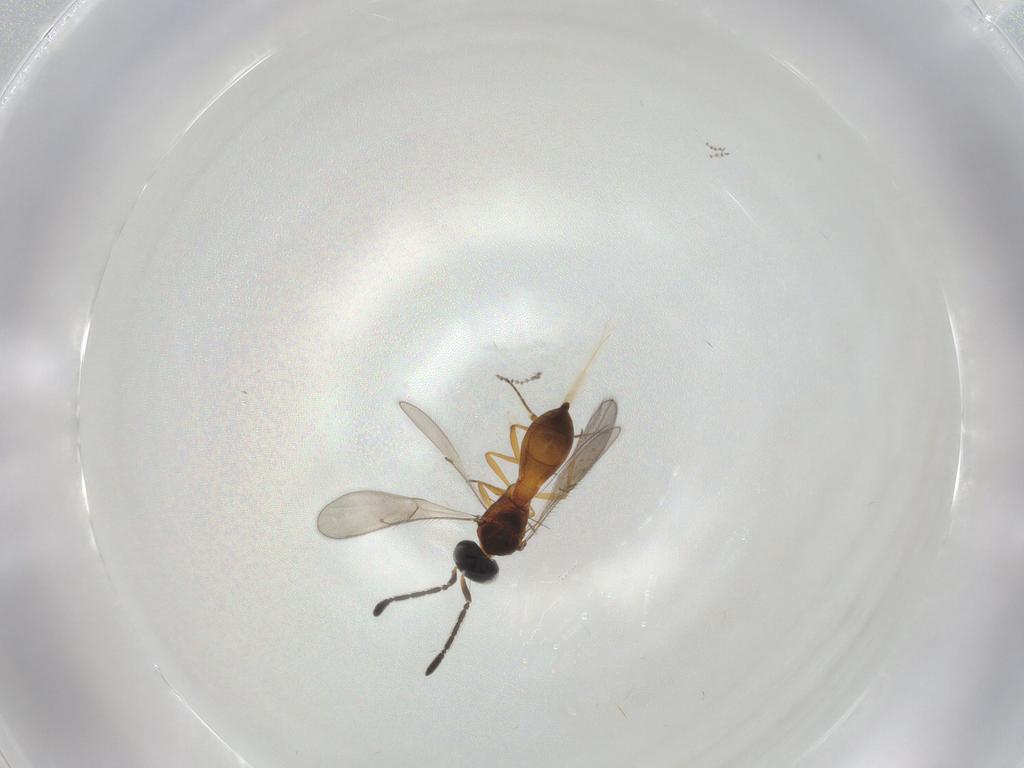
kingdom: Animalia
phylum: Arthropoda
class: Insecta
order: Hymenoptera
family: Scelionidae
